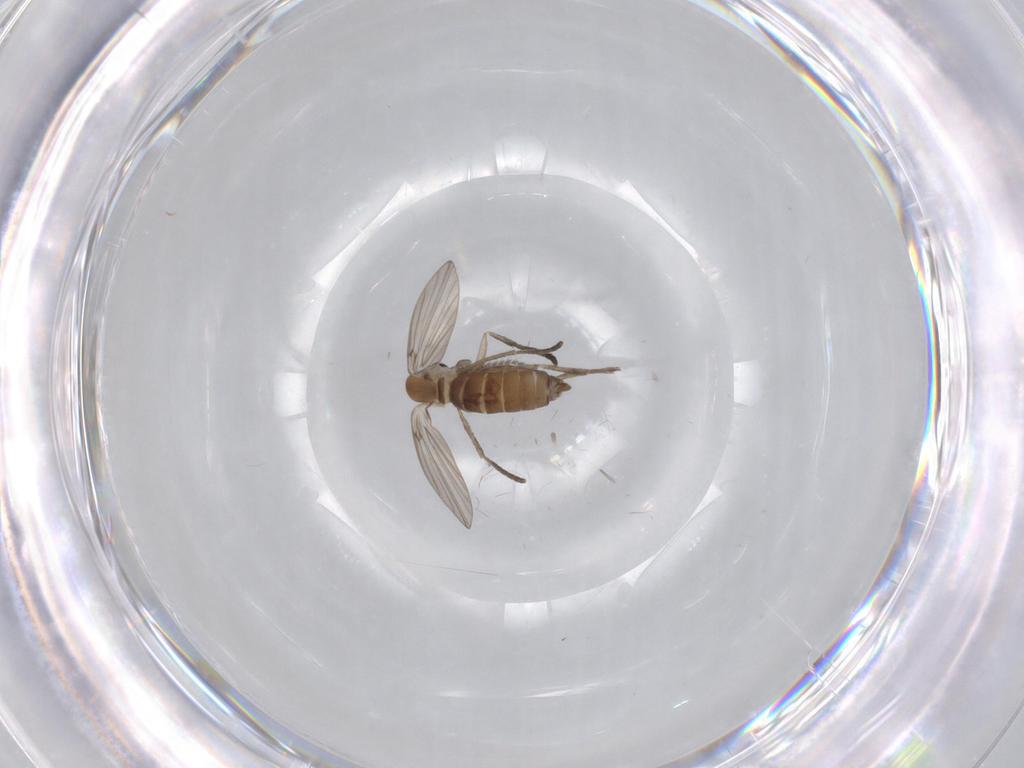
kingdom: Animalia
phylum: Arthropoda
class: Insecta
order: Diptera
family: Psychodidae
